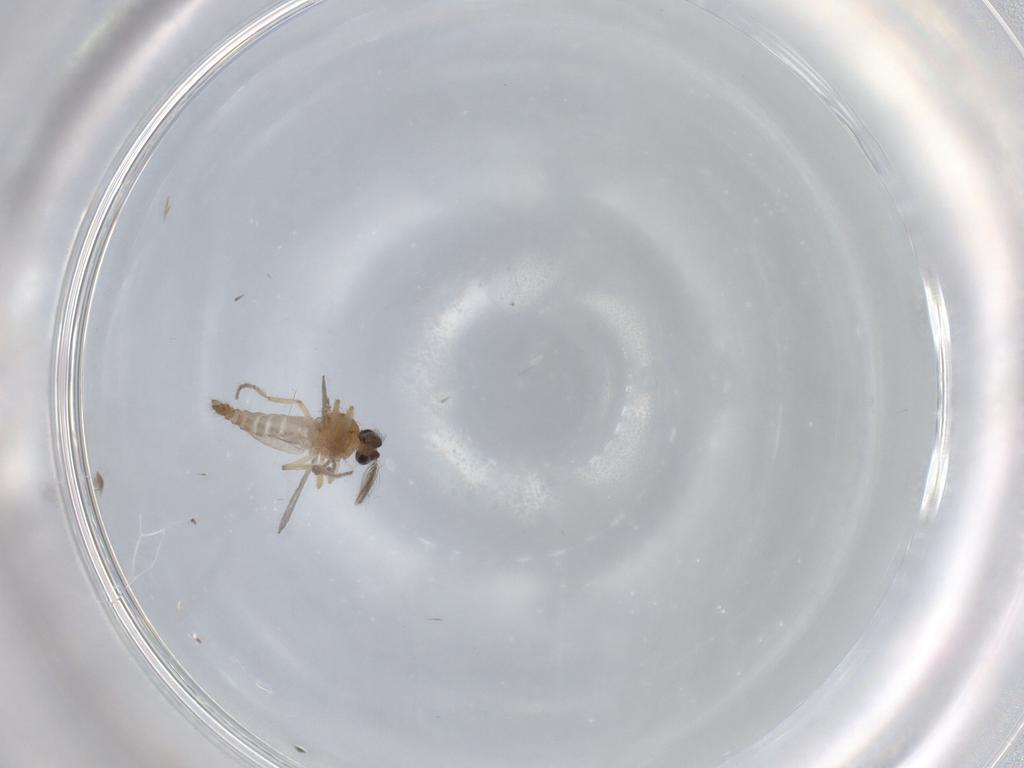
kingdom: Animalia
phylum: Arthropoda
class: Insecta
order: Diptera
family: Ceratopogonidae
